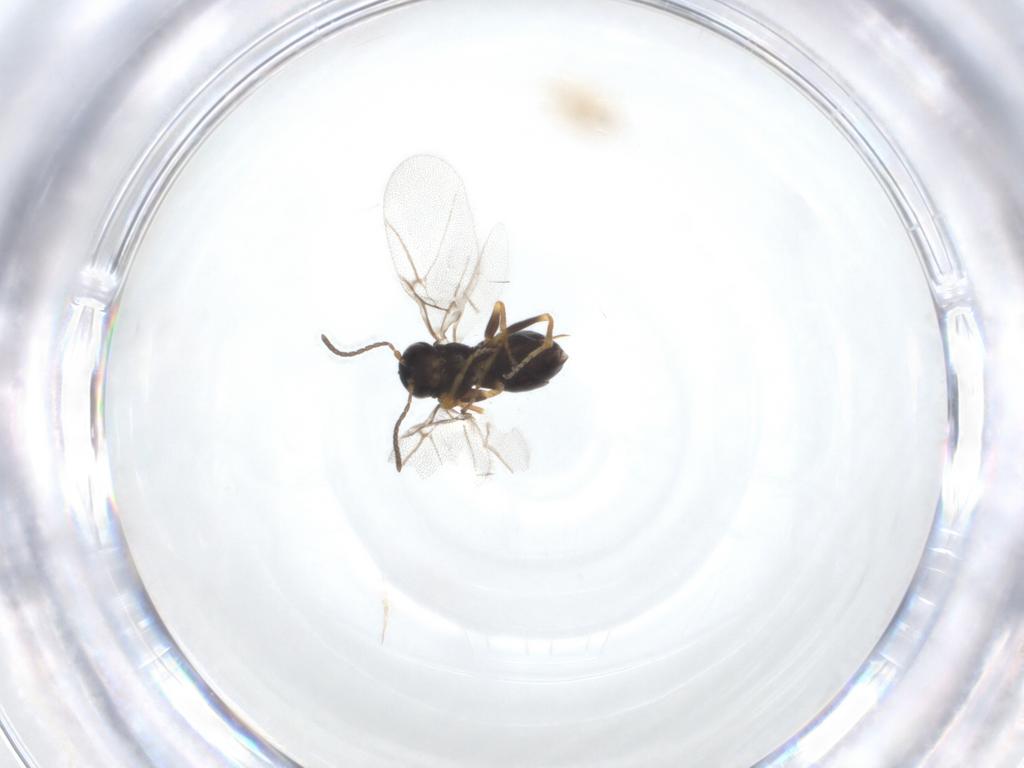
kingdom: Animalia
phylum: Arthropoda
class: Insecta
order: Hymenoptera
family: Cynipidae
